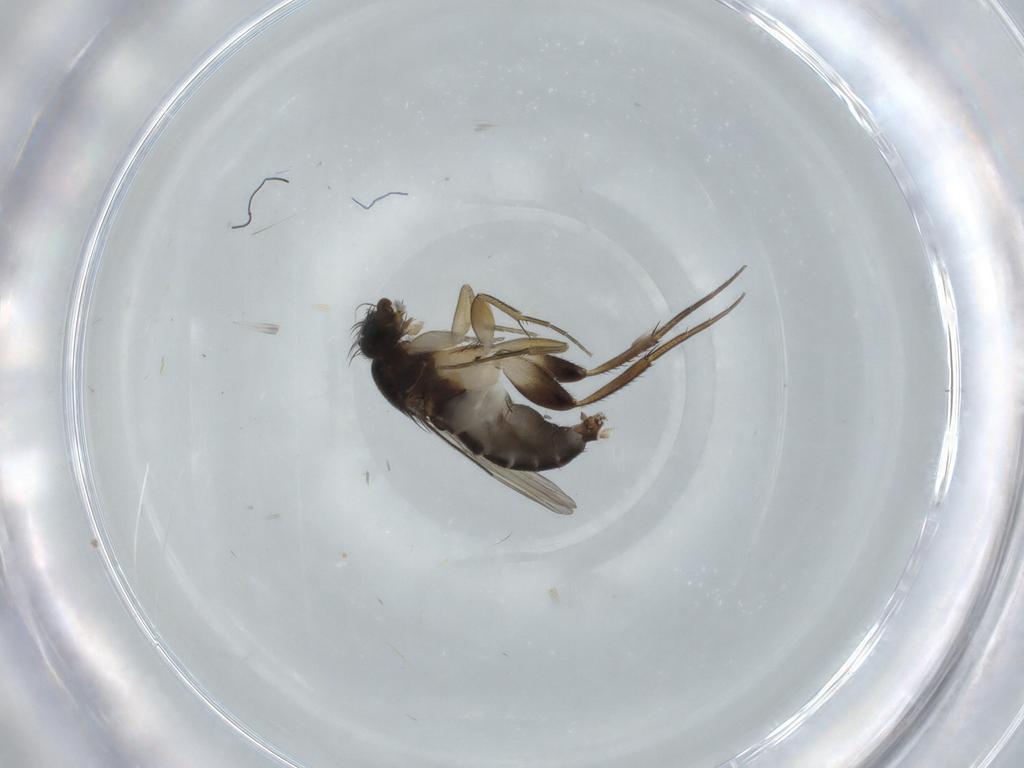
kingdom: Animalia
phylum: Arthropoda
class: Insecta
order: Diptera
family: Phoridae
